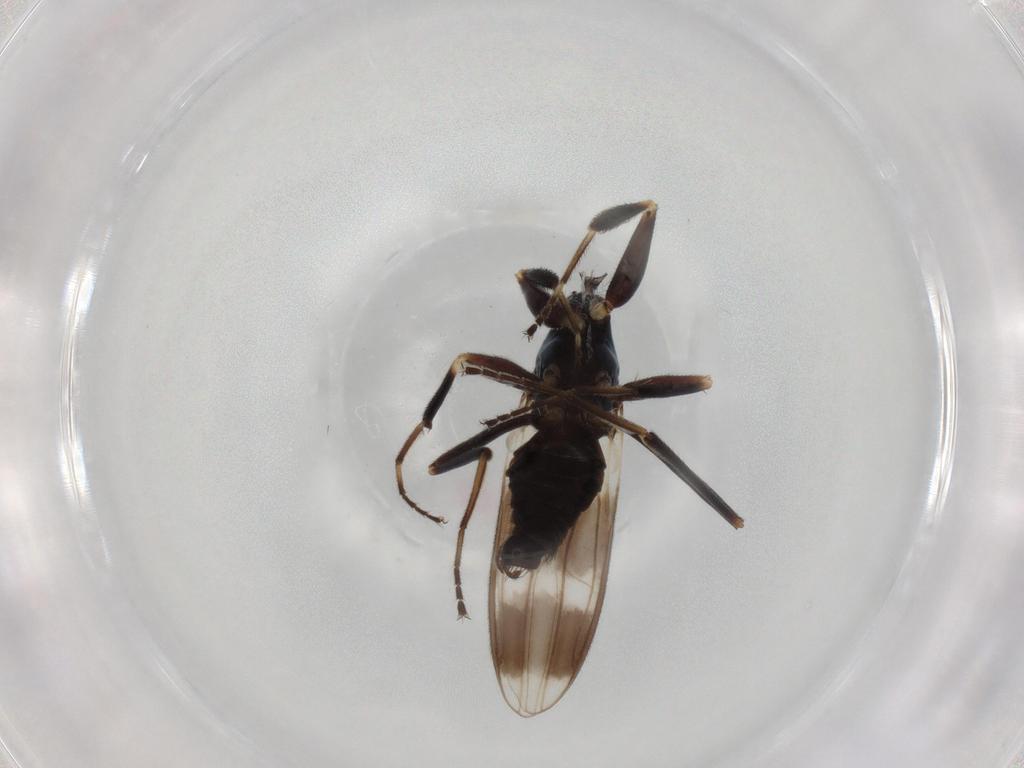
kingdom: Animalia
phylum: Arthropoda
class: Insecta
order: Diptera
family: Hybotidae
